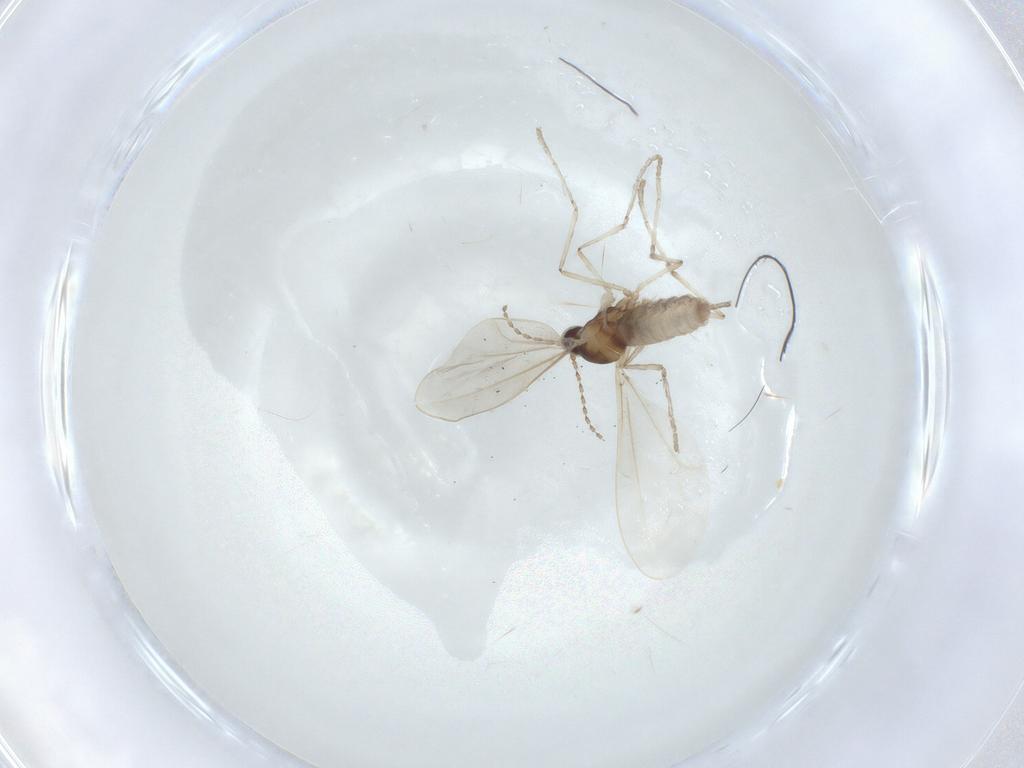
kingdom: Animalia
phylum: Arthropoda
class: Insecta
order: Diptera
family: Cecidomyiidae
